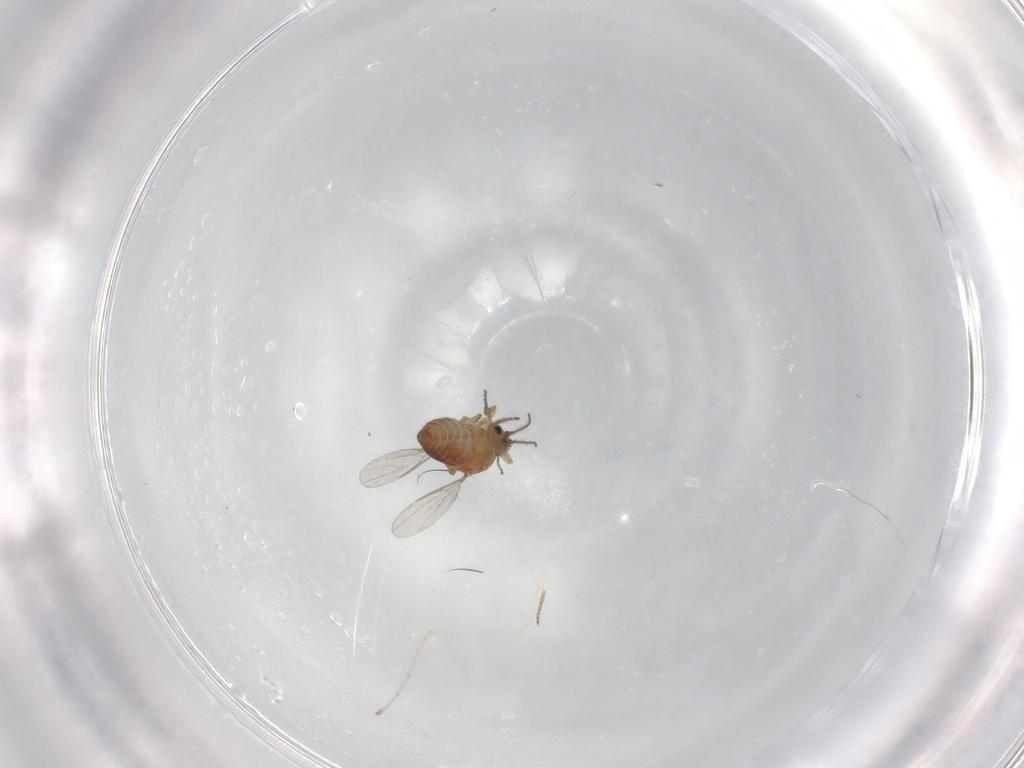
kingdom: Animalia
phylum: Arthropoda
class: Insecta
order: Diptera
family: Ceratopogonidae
